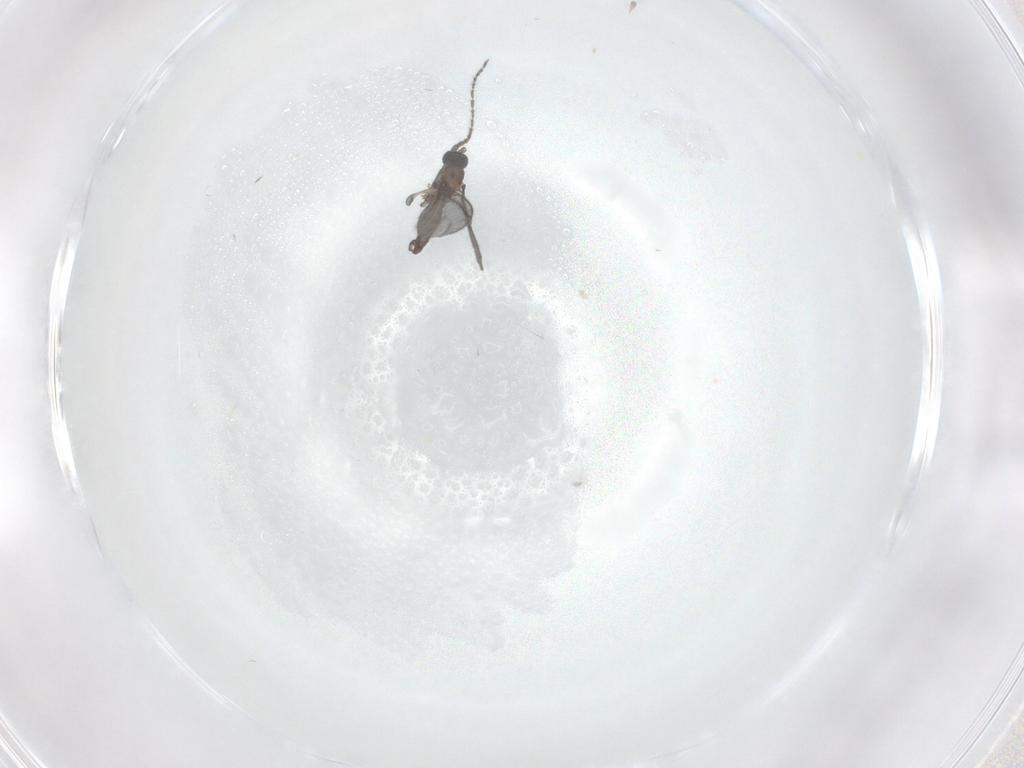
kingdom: Animalia
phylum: Arthropoda
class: Insecta
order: Diptera
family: Sciaridae
